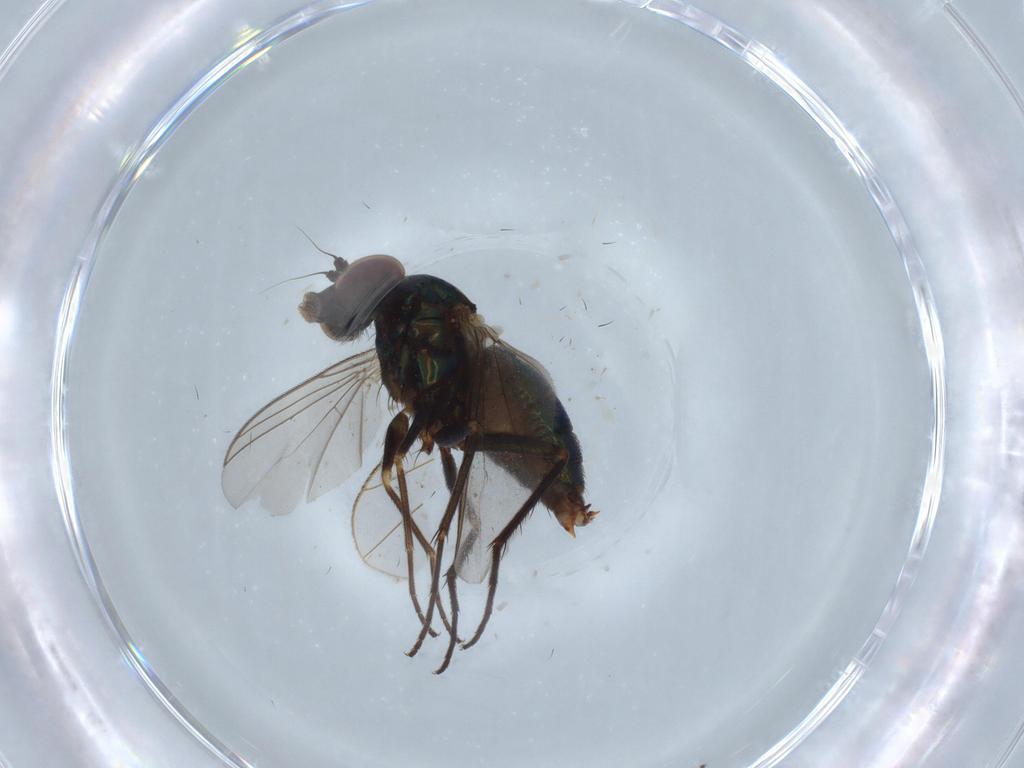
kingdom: Animalia
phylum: Arthropoda
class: Insecta
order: Diptera
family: Dolichopodidae
